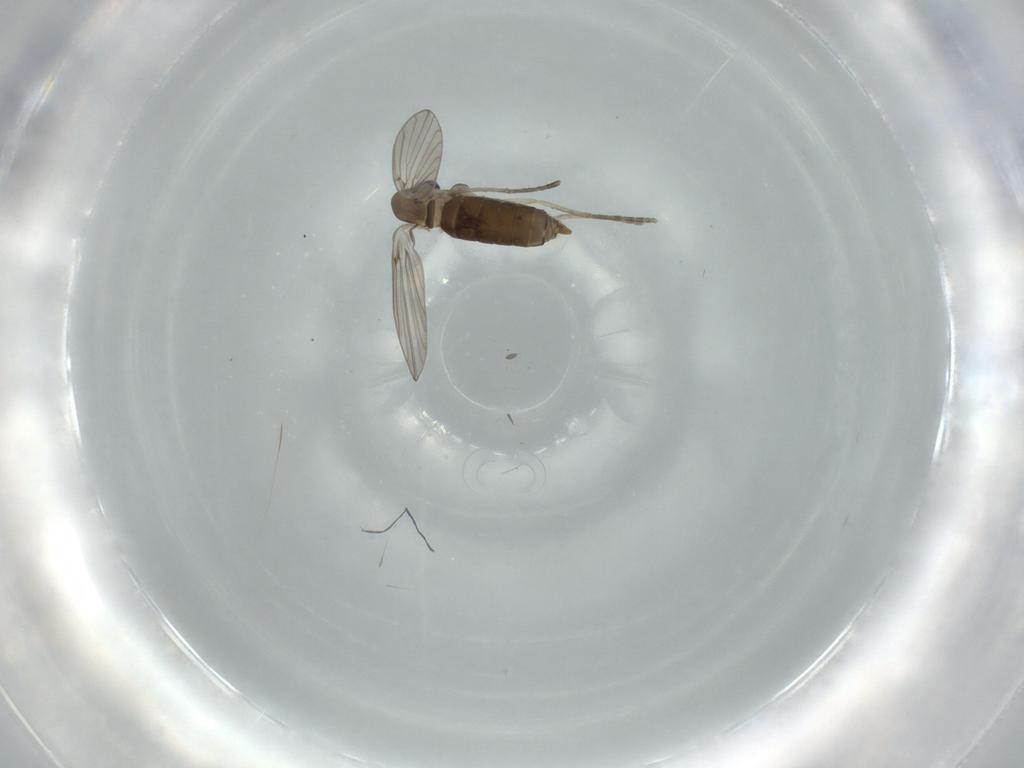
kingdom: Animalia
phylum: Arthropoda
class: Insecta
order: Diptera
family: Psychodidae
